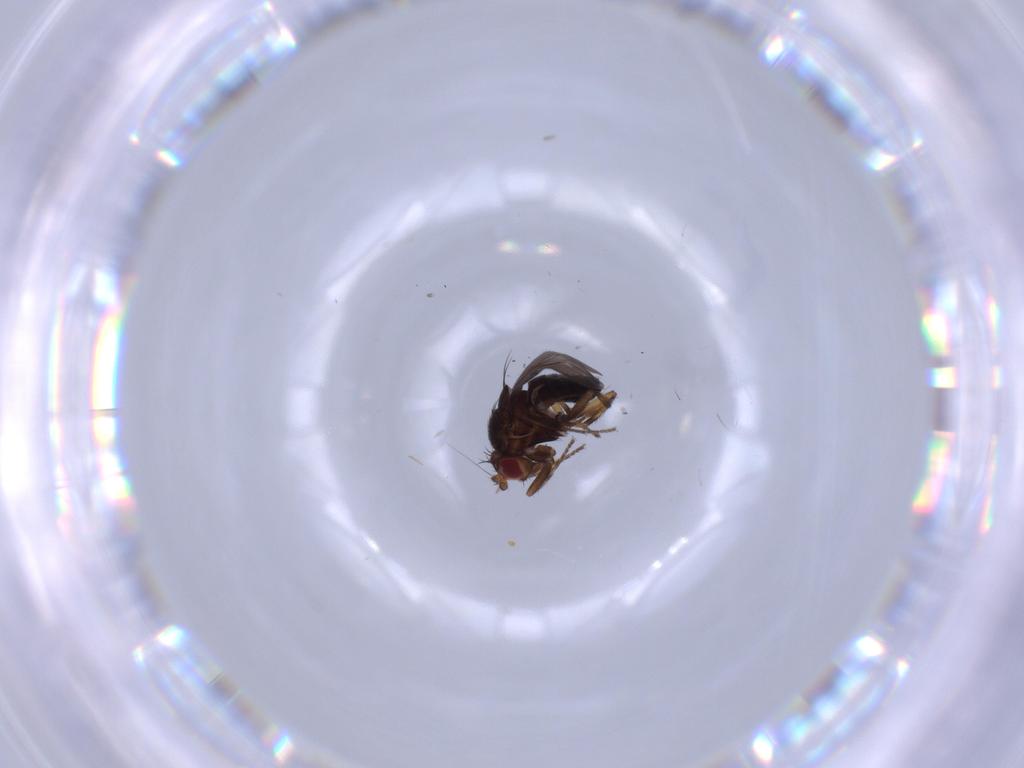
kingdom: Animalia
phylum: Arthropoda
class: Insecta
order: Diptera
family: Sphaeroceridae
